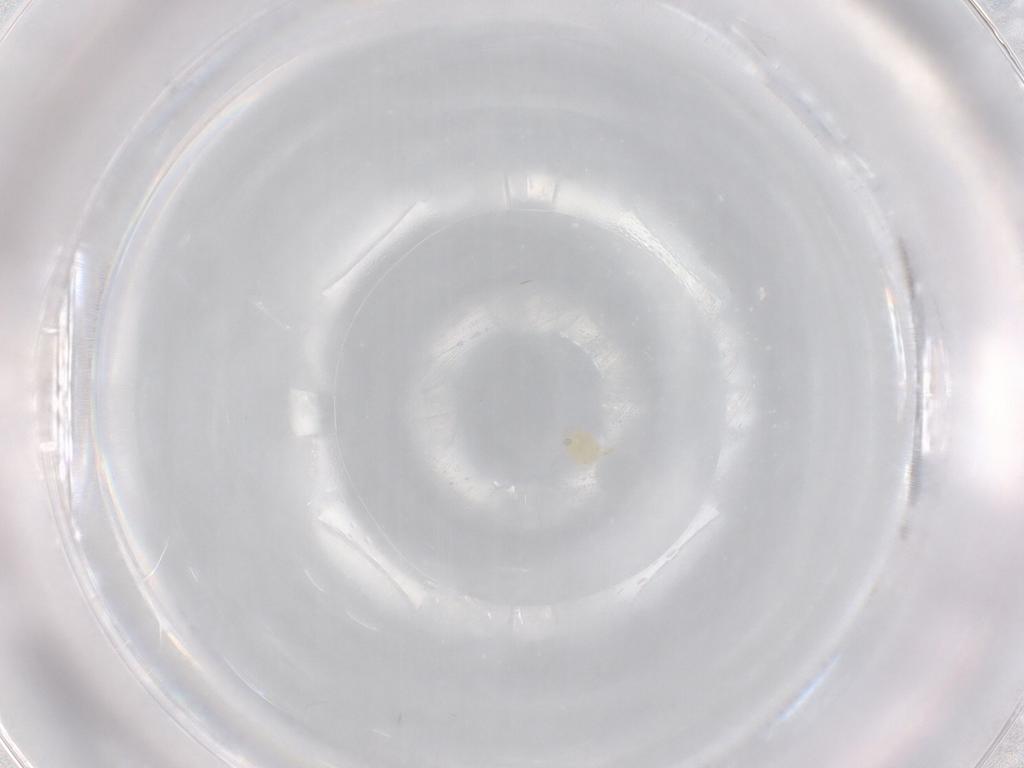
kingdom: Animalia
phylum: Arthropoda
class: Arachnida
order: Trombidiformes
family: Lebertiidae
